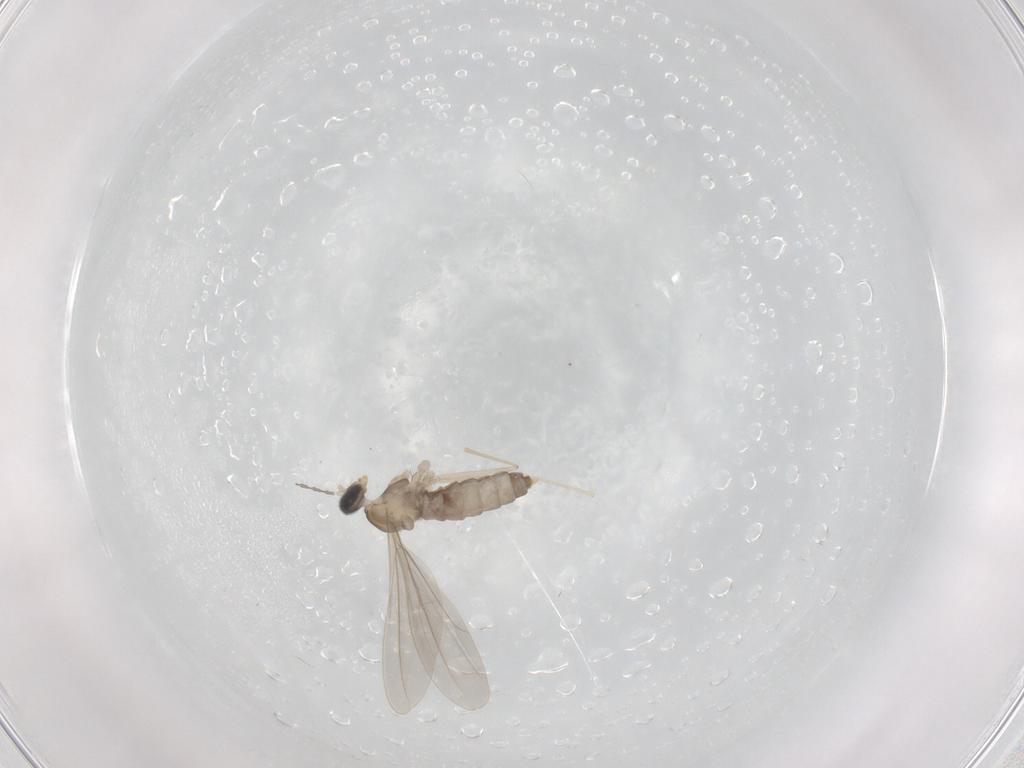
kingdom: Animalia
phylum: Arthropoda
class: Insecta
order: Diptera
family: Cecidomyiidae
